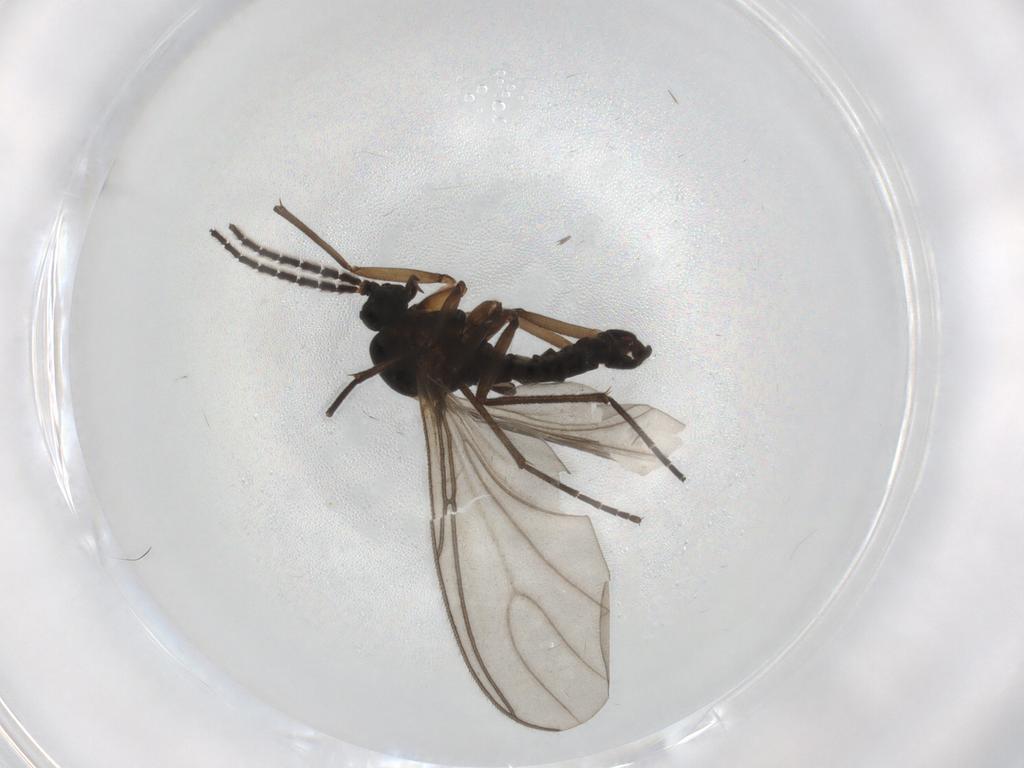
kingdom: Animalia
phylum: Arthropoda
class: Insecta
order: Diptera
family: Sciaridae
